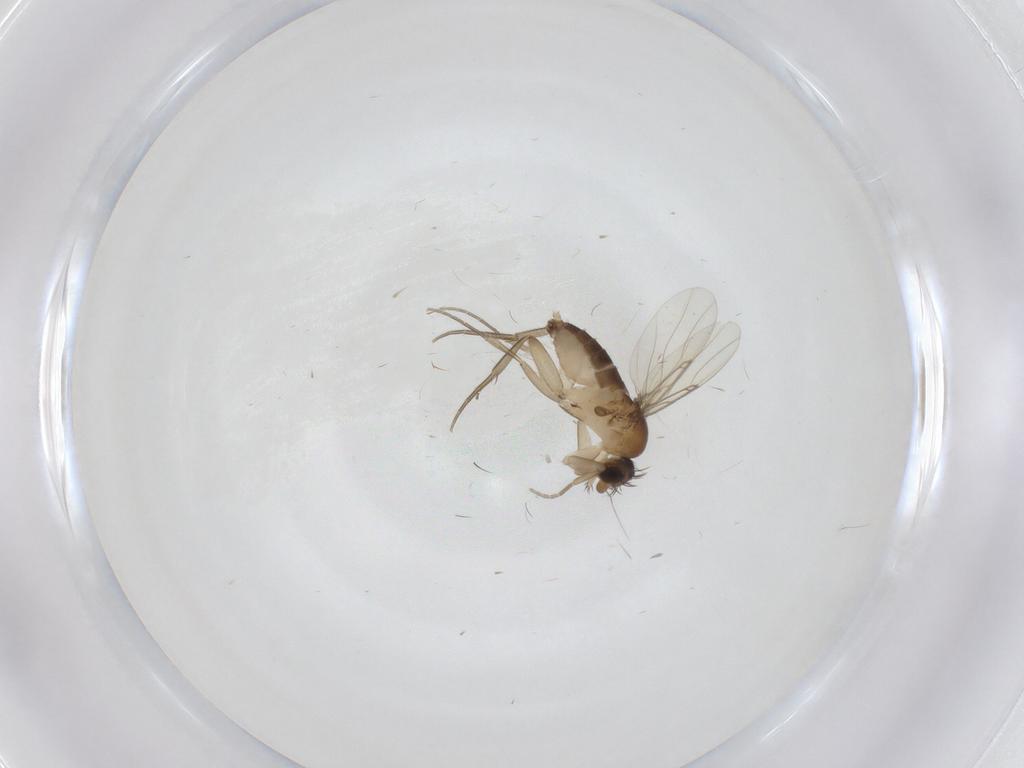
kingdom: Animalia
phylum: Arthropoda
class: Insecta
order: Diptera
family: Phoridae
